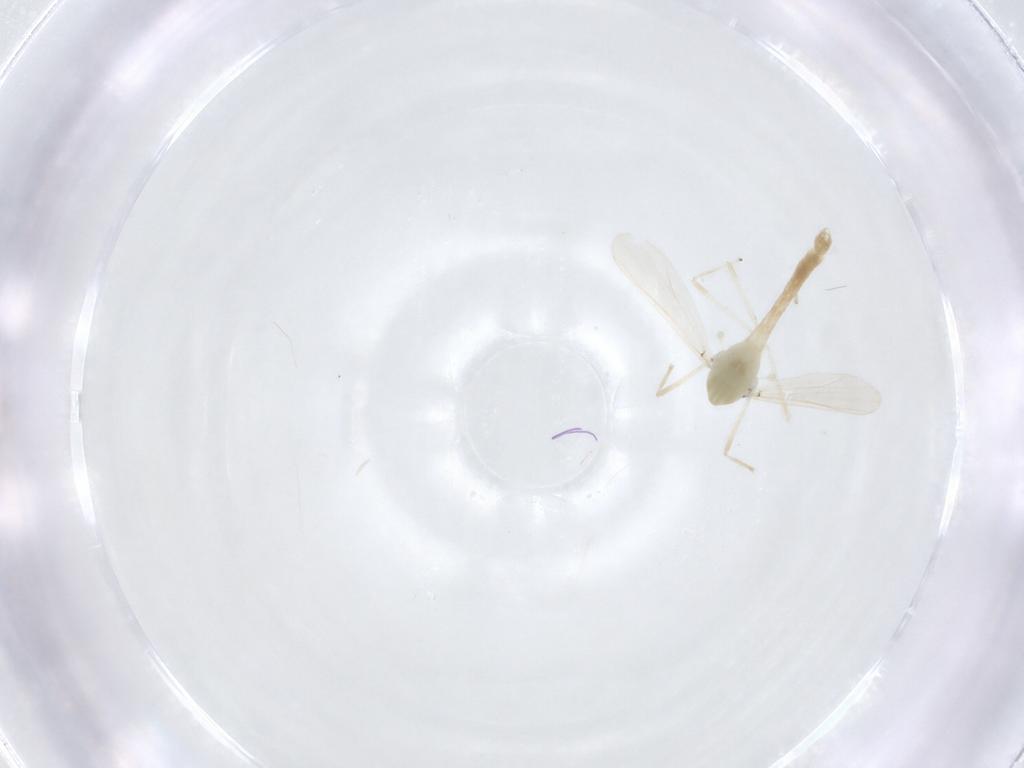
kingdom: Animalia
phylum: Arthropoda
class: Insecta
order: Diptera
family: Chironomidae
